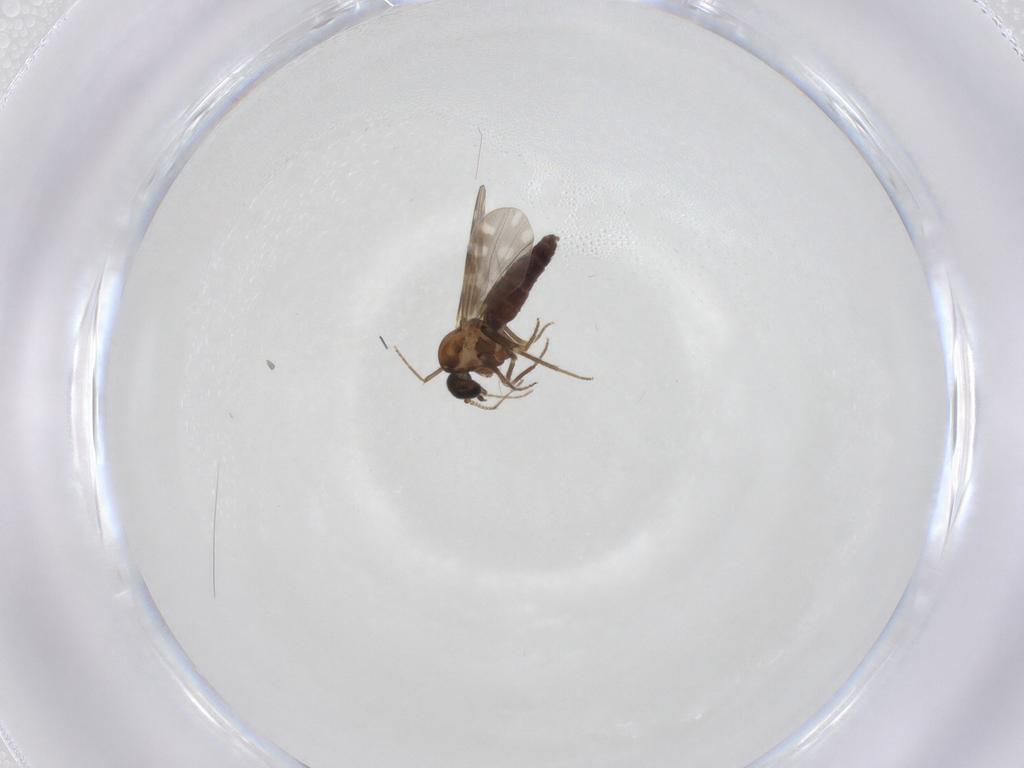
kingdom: Animalia
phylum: Arthropoda
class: Insecta
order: Diptera
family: Ceratopogonidae
